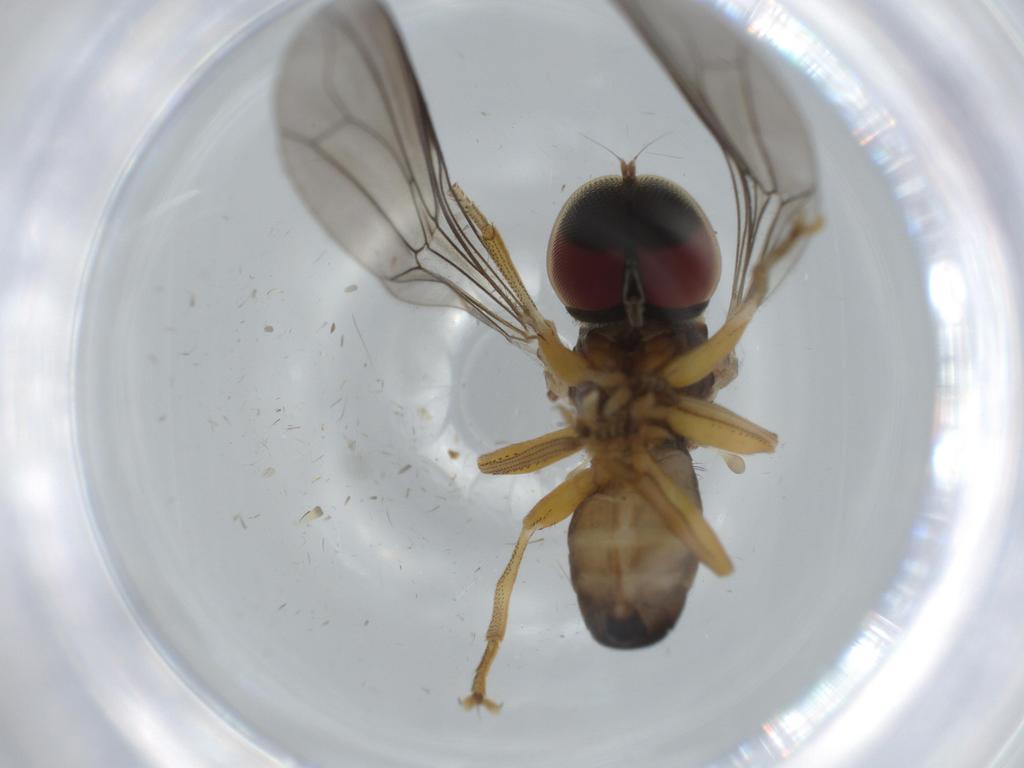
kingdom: Animalia
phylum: Arthropoda
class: Insecta
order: Diptera
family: Pipunculidae
